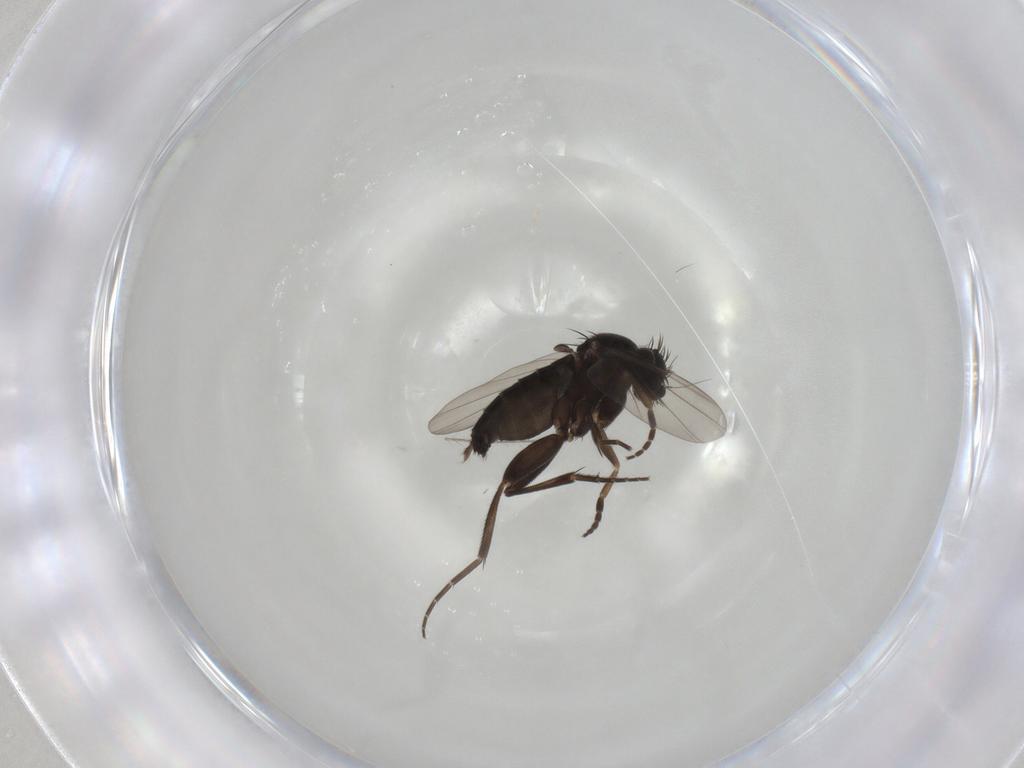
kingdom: Animalia
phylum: Arthropoda
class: Insecta
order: Diptera
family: Phoridae
